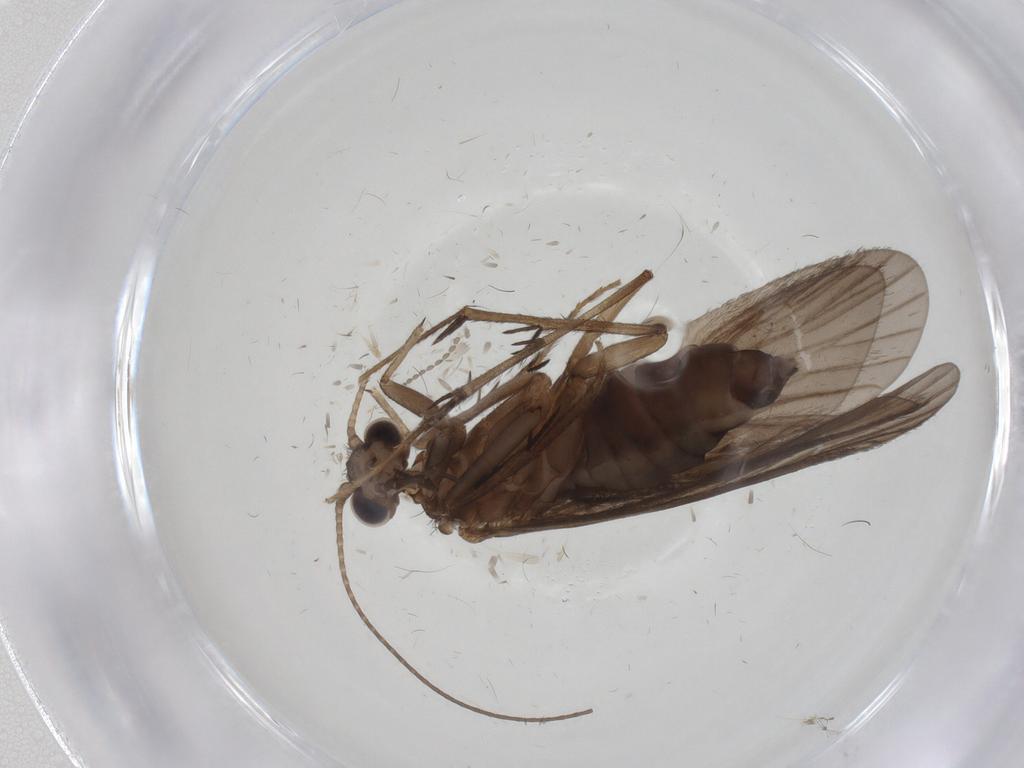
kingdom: Animalia
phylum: Arthropoda
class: Insecta
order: Trichoptera
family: Philopotamidae
